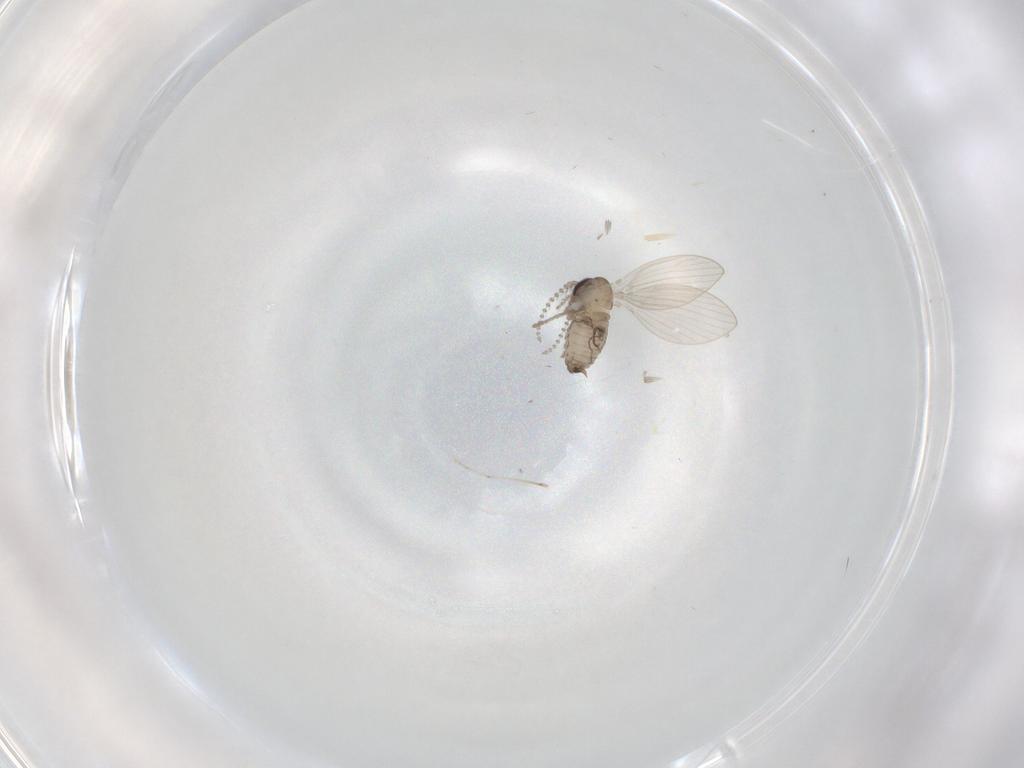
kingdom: Animalia
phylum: Arthropoda
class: Insecta
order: Diptera
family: Psychodidae
